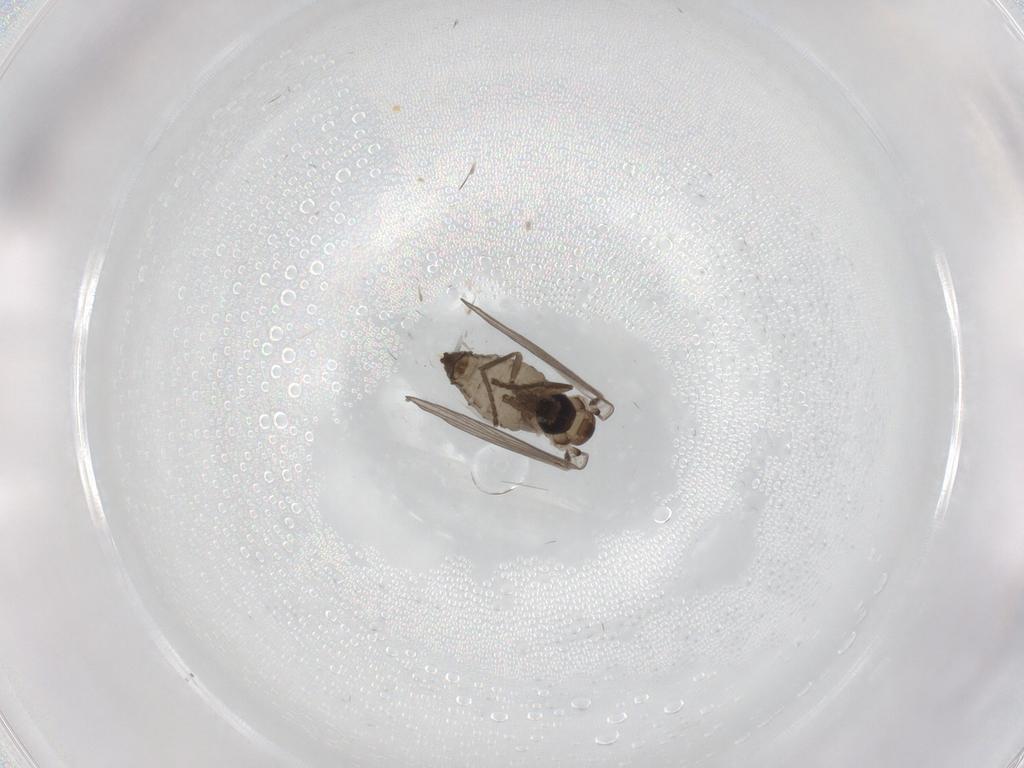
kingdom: Animalia
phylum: Arthropoda
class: Insecta
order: Diptera
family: Psychodidae
